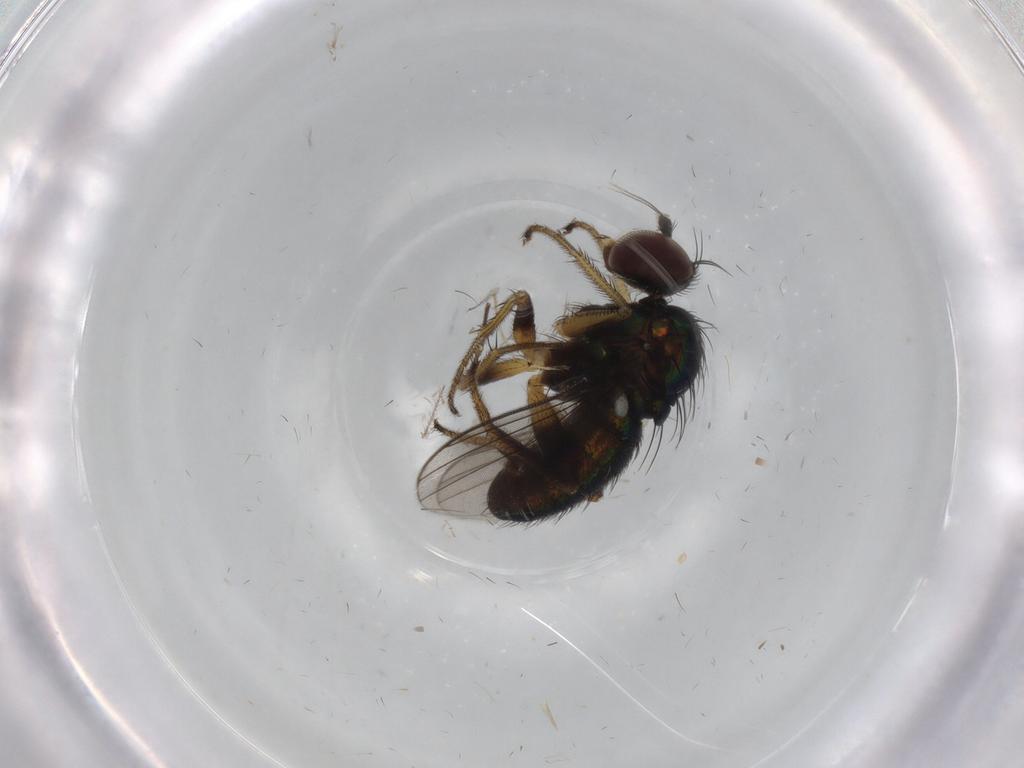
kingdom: Animalia
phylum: Arthropoda
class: Insecta
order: Diptera
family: Dolichopodidae
